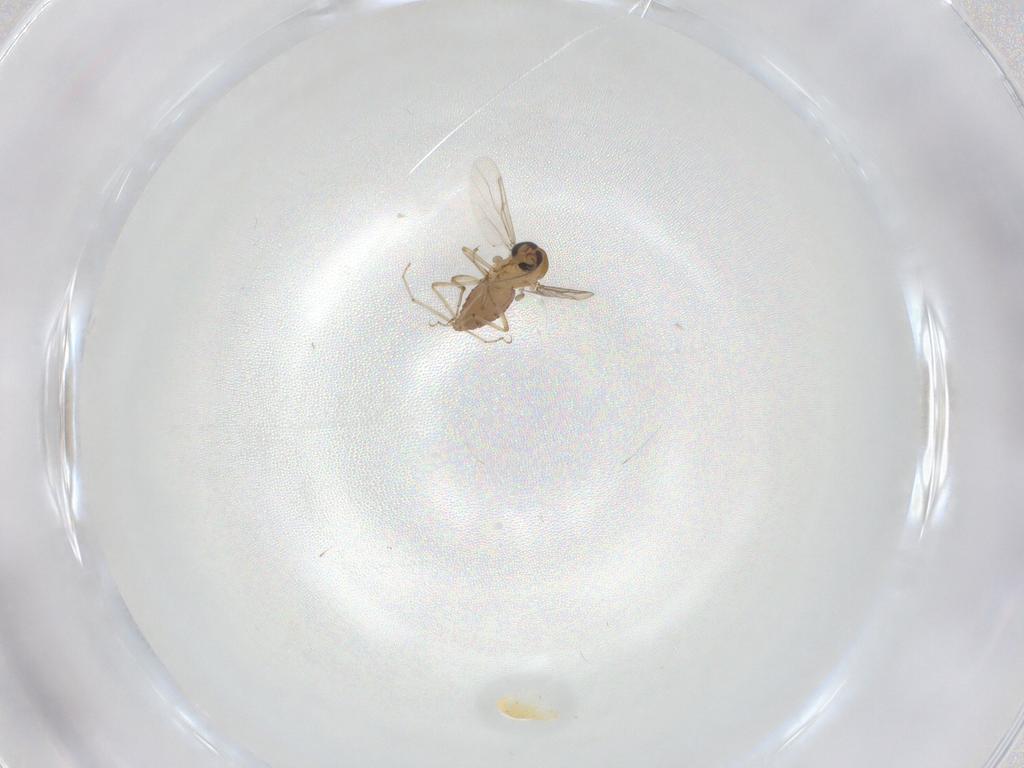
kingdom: Animalia
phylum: Arthropoda
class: Insecta
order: Diptera
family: Ceratopogonidae
